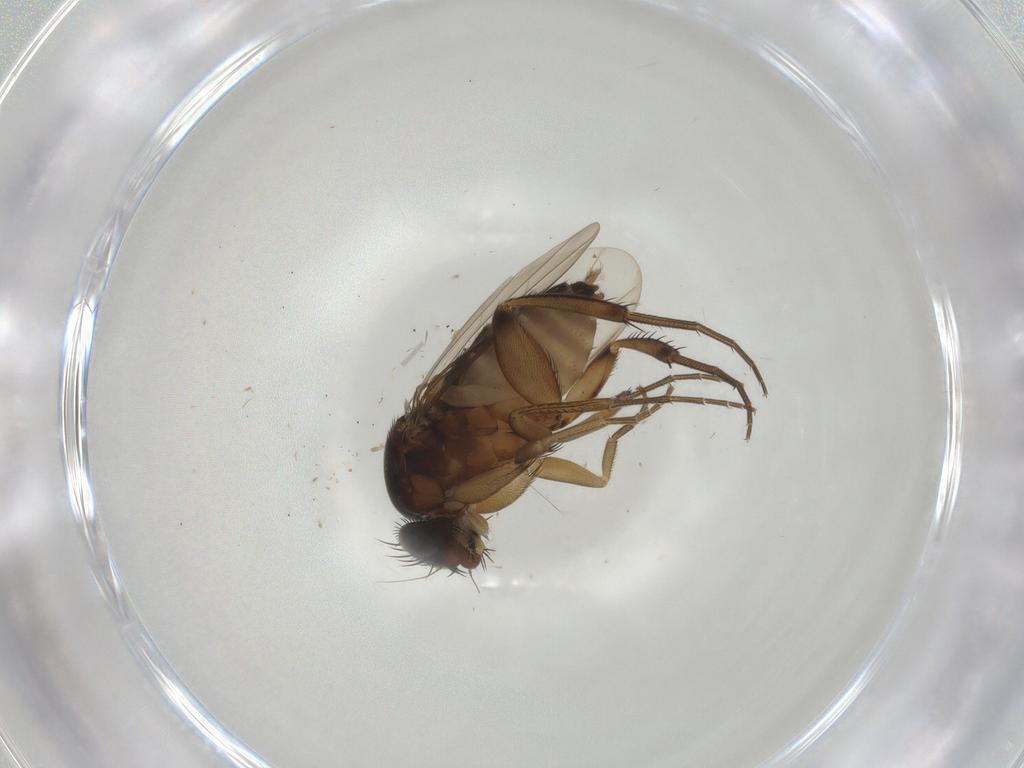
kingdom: Animalia
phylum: Arthropoda
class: Insecta
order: Diptera
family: Phoridae
